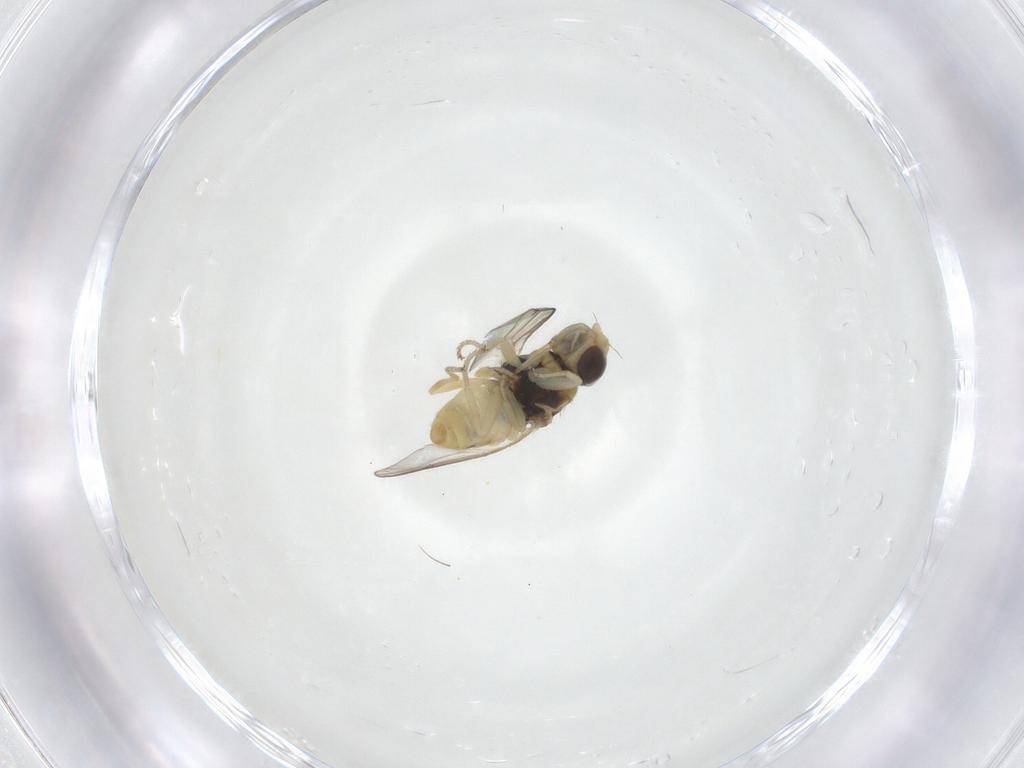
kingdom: Animalia
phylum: Arthropoda
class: Insecta
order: Diptera
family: Chloropidae
